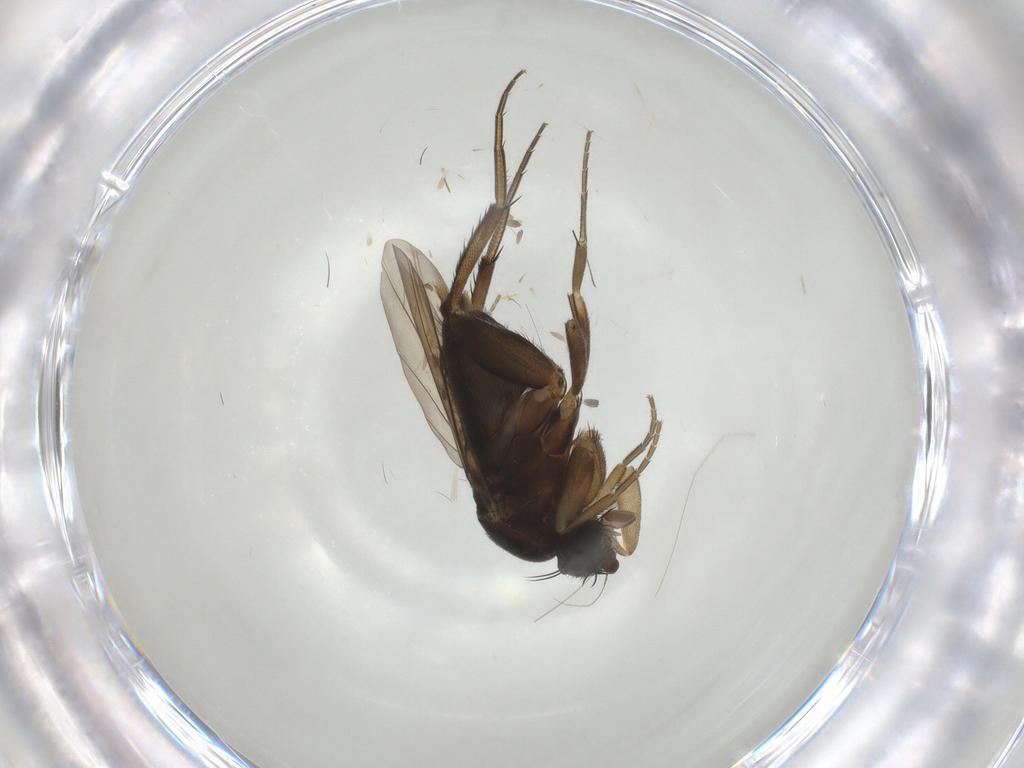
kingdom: Animalia
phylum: Arthropoda
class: Insecta
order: Diptera
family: Phoridae
